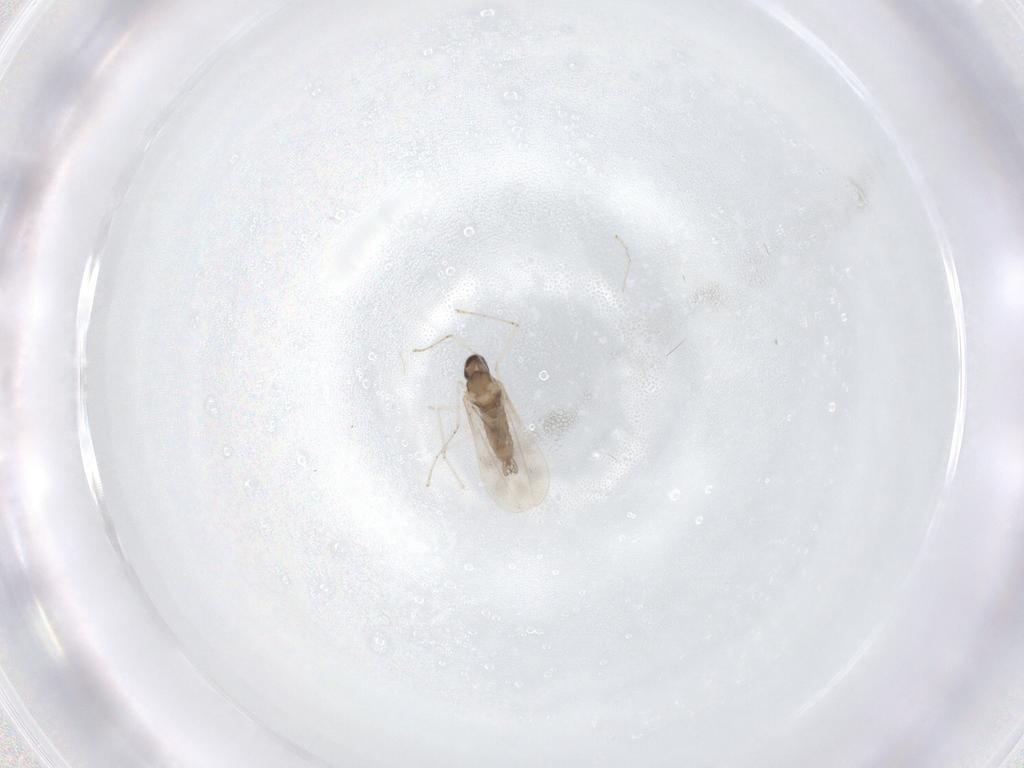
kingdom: Animalia
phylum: Arthropoda
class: Insecta
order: Diptera
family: Cecidomyiidae
